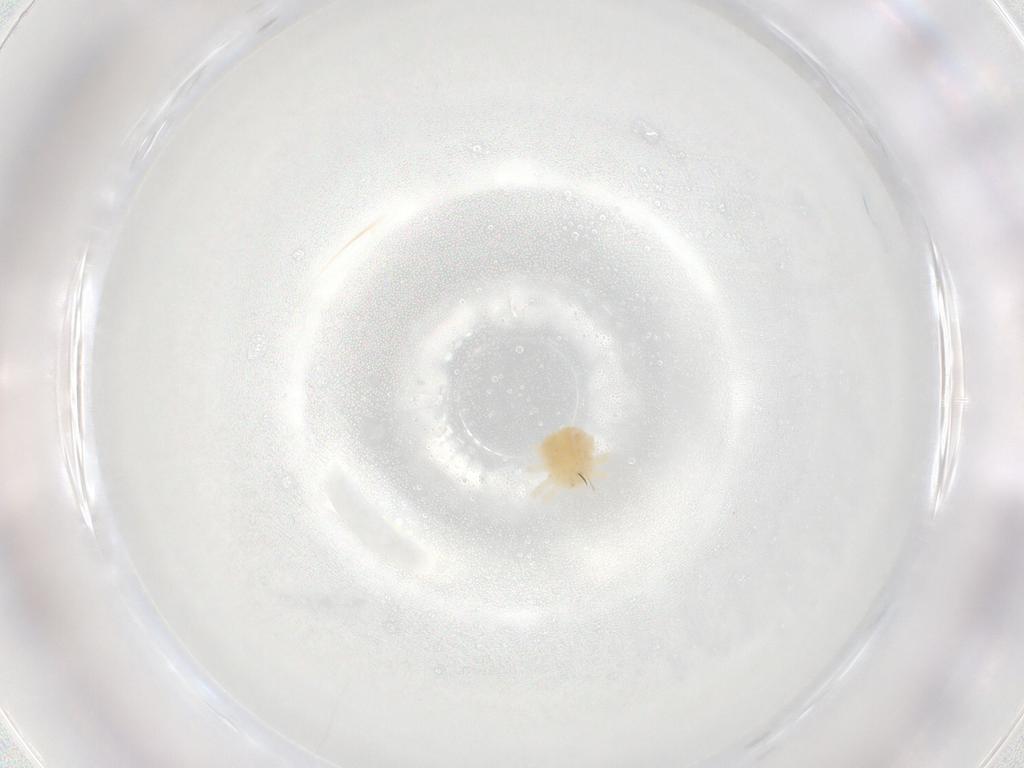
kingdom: Animalia
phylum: Arthropoda
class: Arachnida
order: Trombidiformes
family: Anystidae
